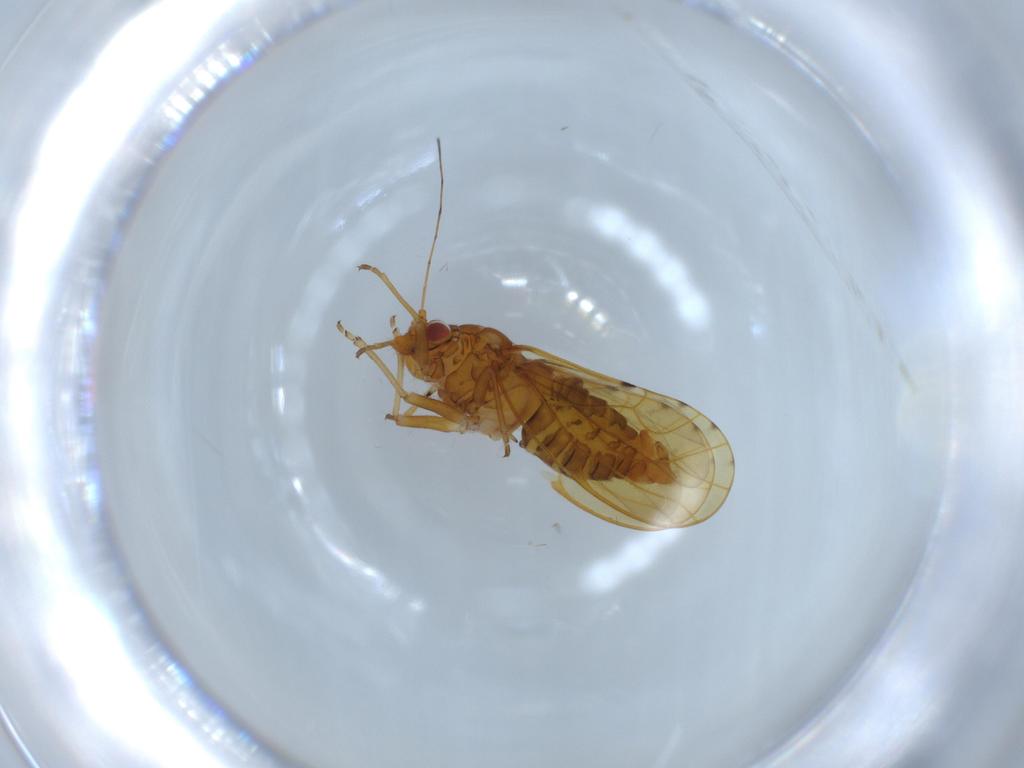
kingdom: Animalia
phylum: Arthropoda
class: Insecta
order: Hemiptera
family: Psylloidea_incertae_sedis
